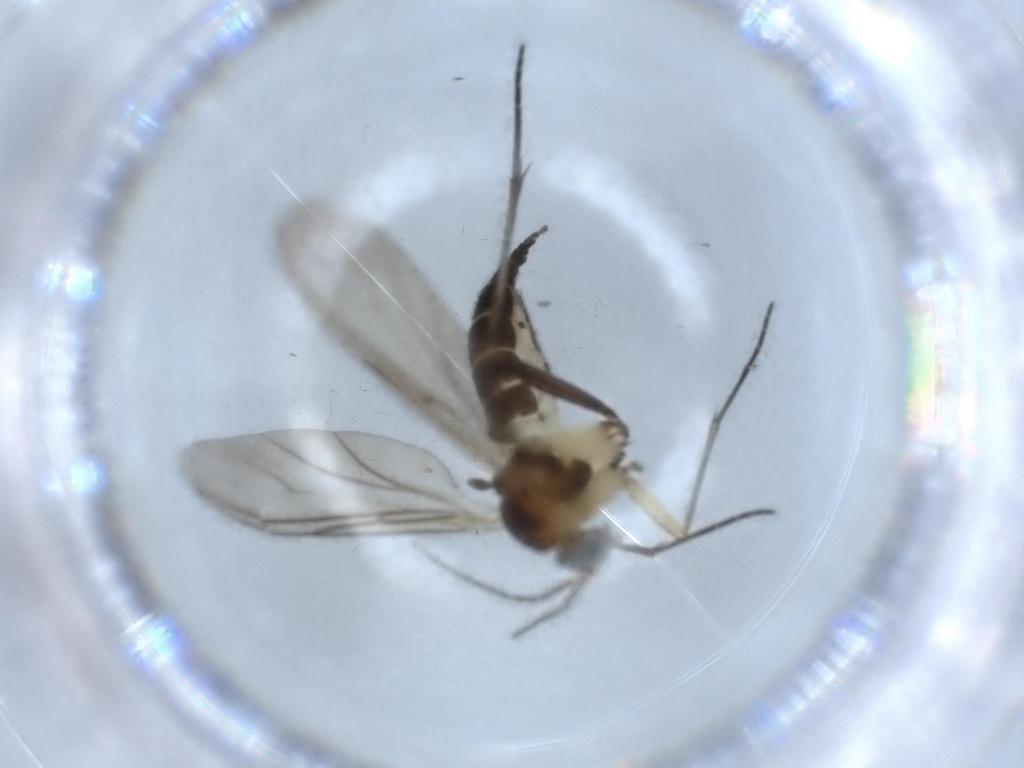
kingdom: Animalia
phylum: Arthropoda
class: Insecta
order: Diptera
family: Sciaridae
